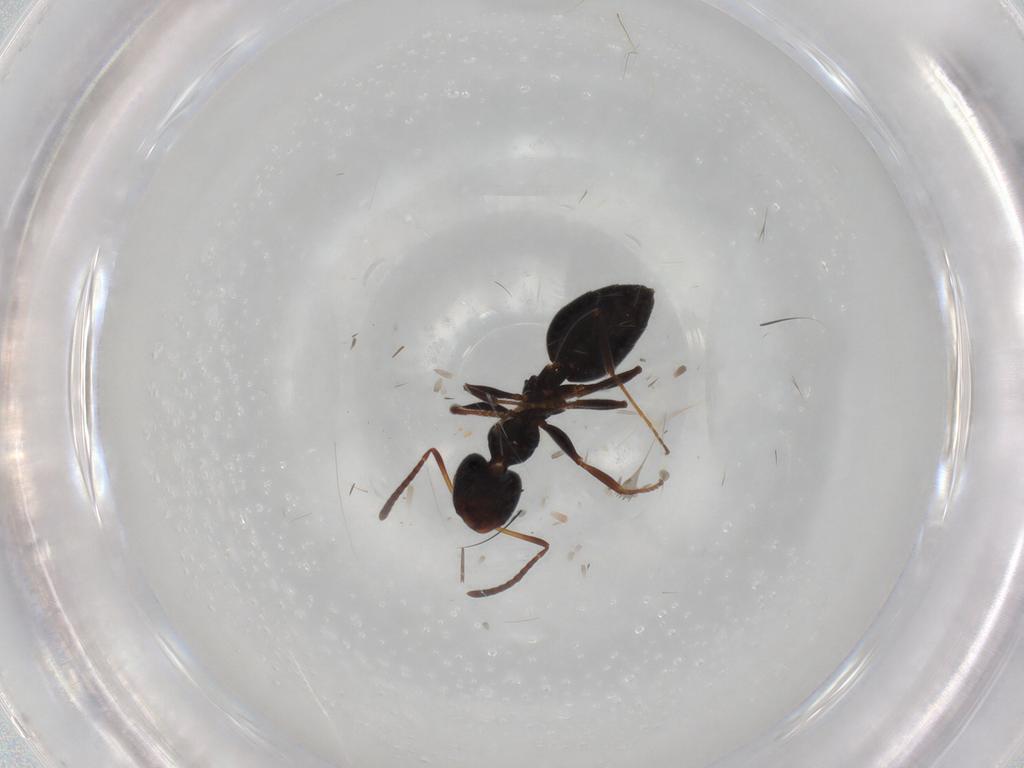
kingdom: Animalia
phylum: Arthropoda
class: Insecta
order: Hymenoptera
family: Formicidae
